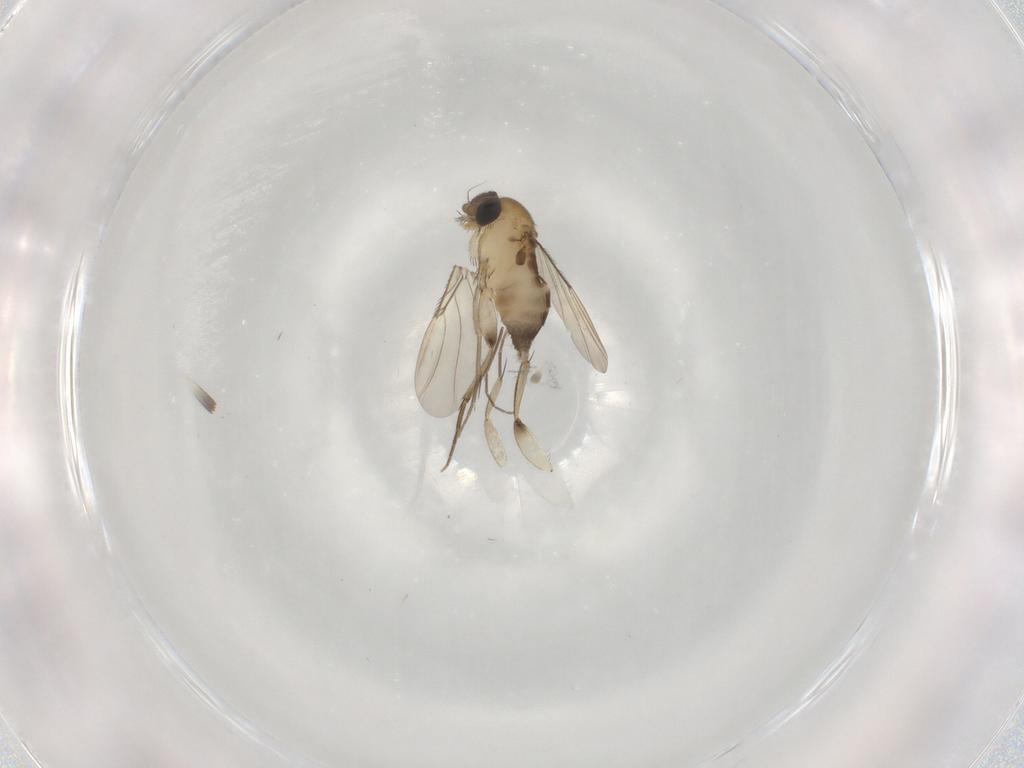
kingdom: Animalia
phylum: Arthropoda
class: Insecta
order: Diptera
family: Phoridae
